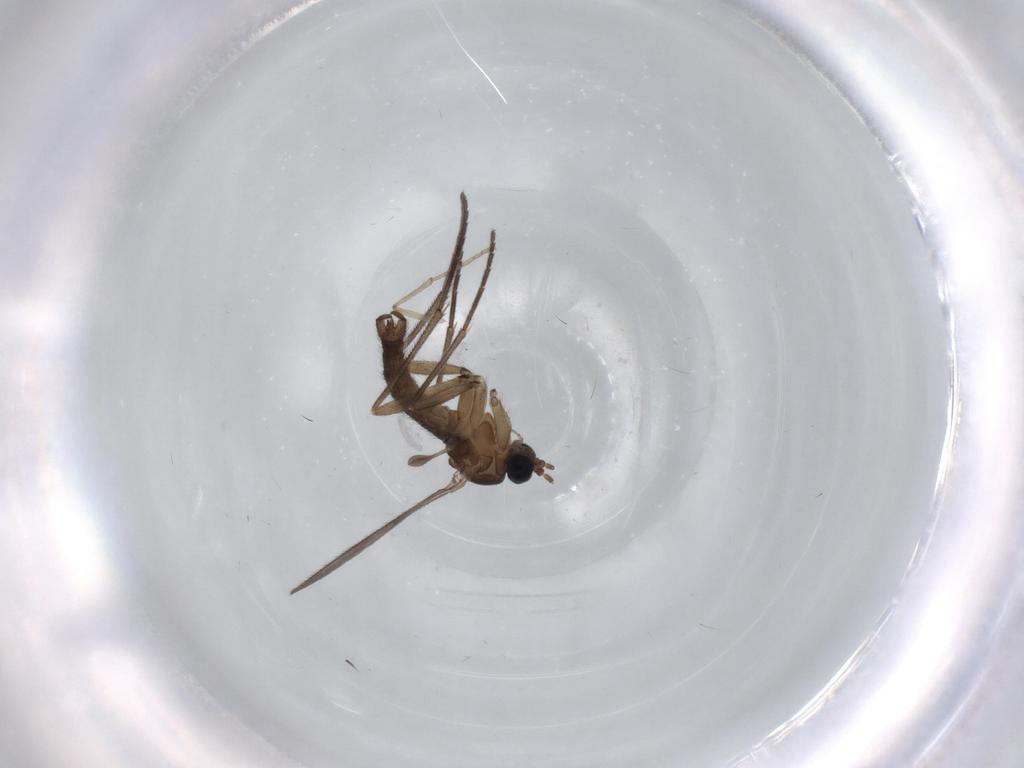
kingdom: Animalia
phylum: Arthropoda
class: Insecta
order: Diptera
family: Sciaridae
